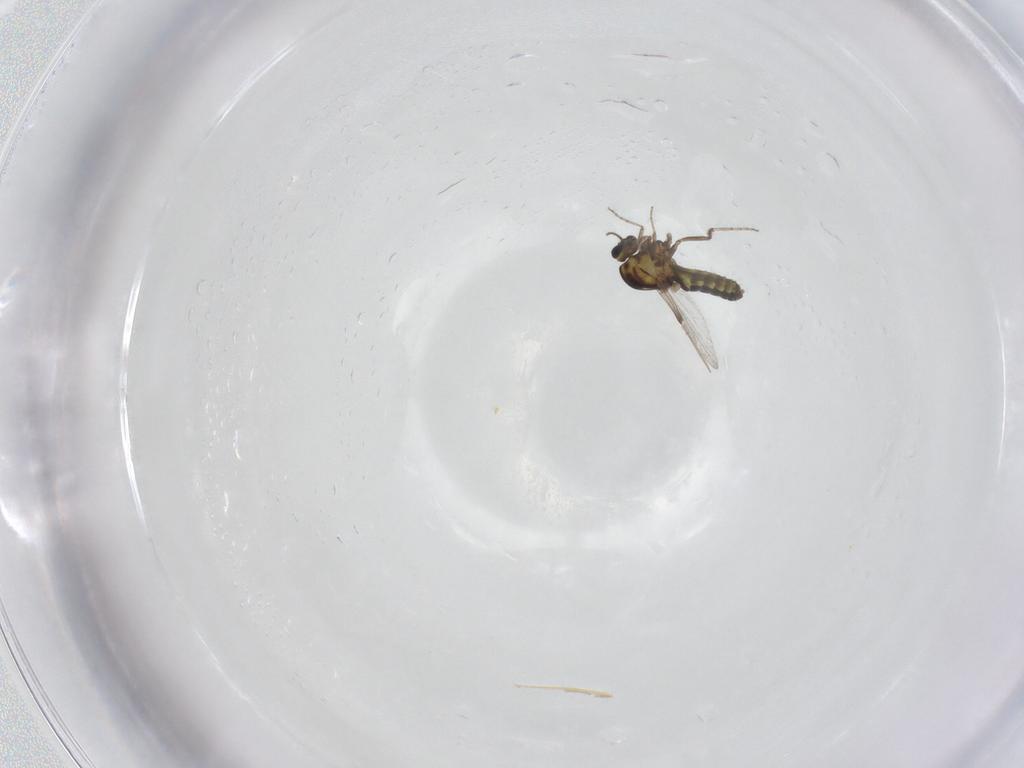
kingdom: Animalia
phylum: Arthropoda
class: Insecta
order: Diptera
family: Ceratopogonidae
